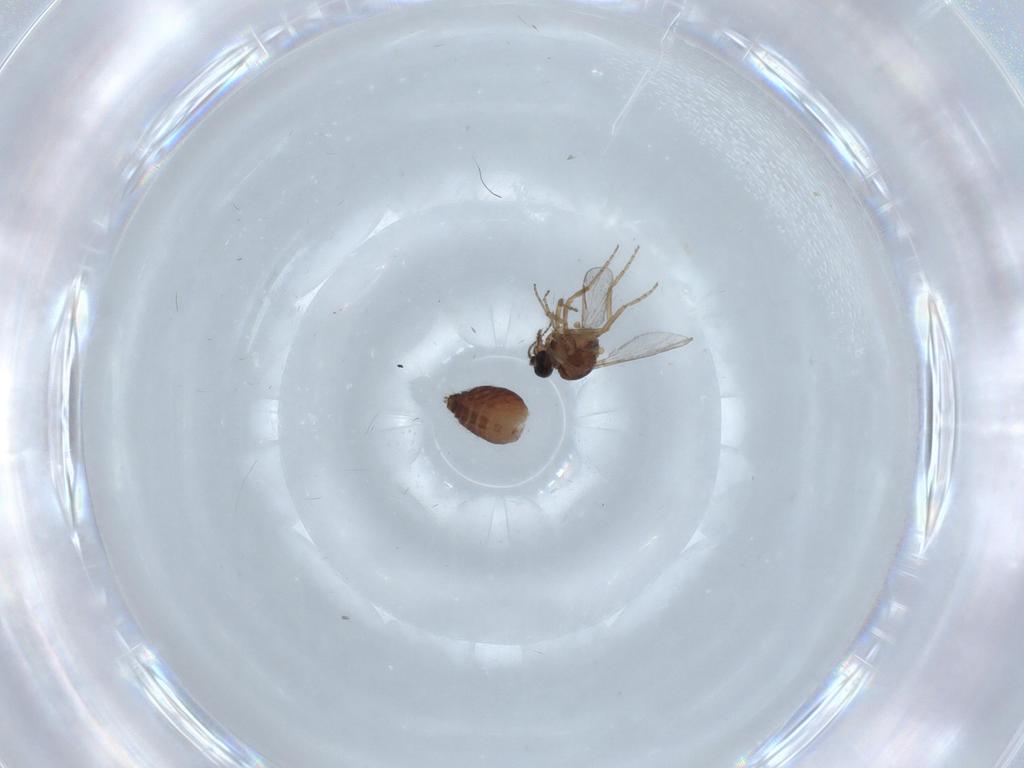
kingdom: Animalia
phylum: Arthropoda
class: Insecta
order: Diptera
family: Ceratopogonidae
